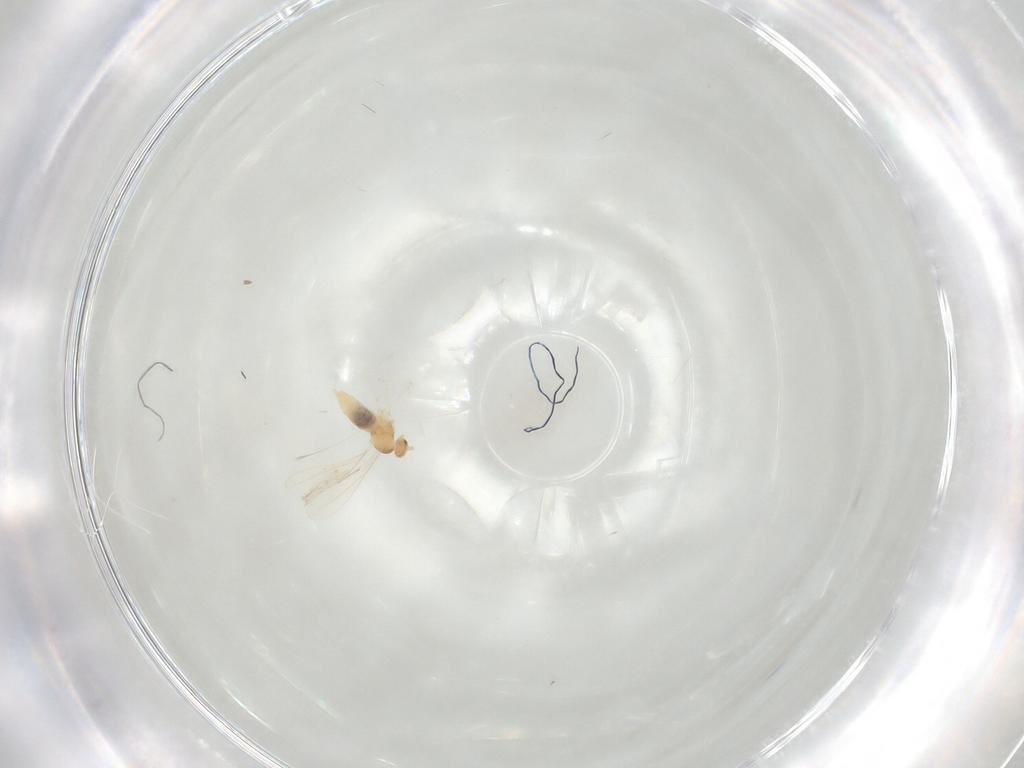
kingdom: Animalia
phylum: Arthropoda
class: Insecta
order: Diptera
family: Cecidomyiidae
